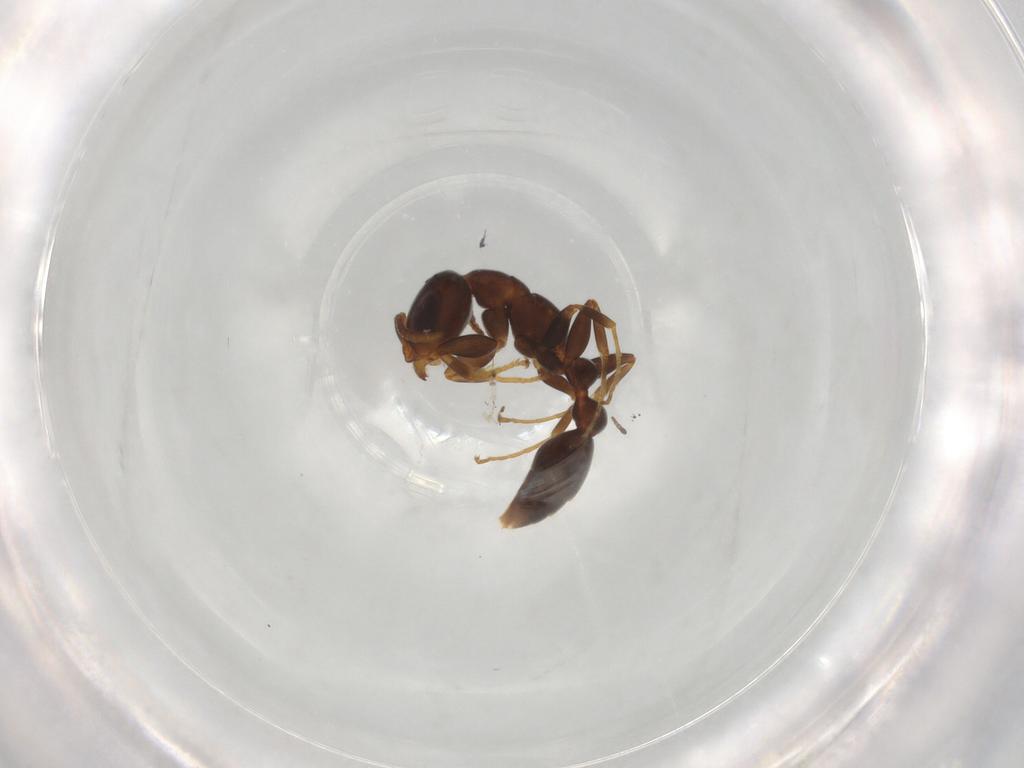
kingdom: Animalia
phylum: Arthropoda
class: Insecta
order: Hymenoptera
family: Formicidae
